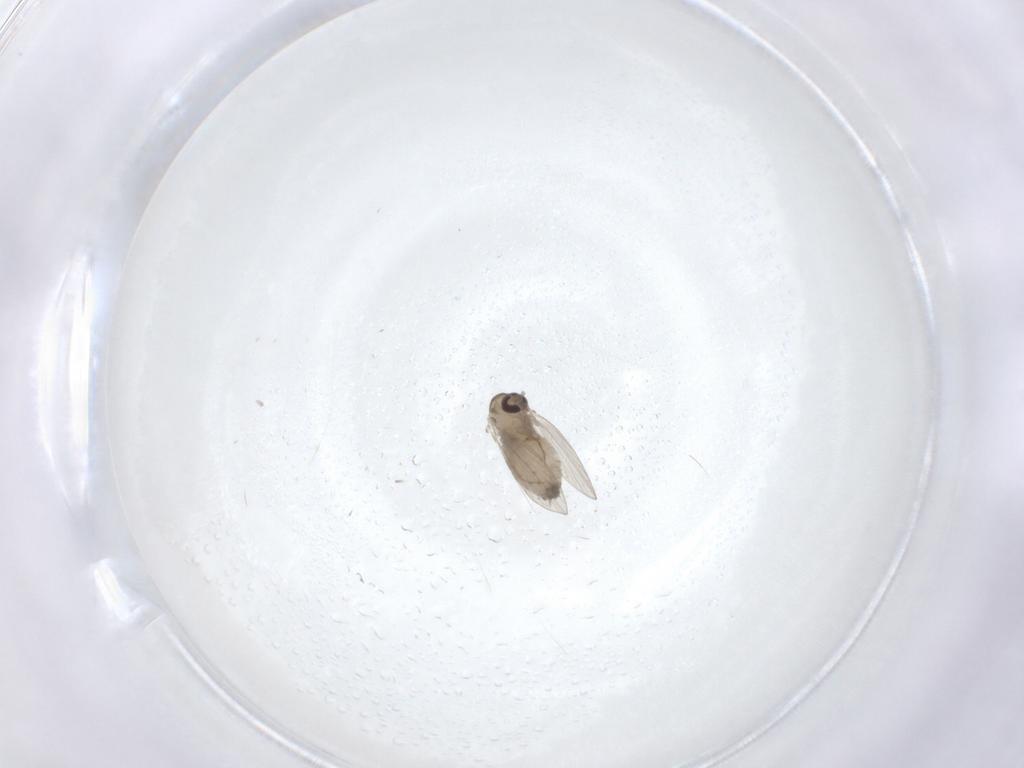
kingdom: Animalia
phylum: Arthropoda
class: Insecta
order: Diptera
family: Psychodidae
